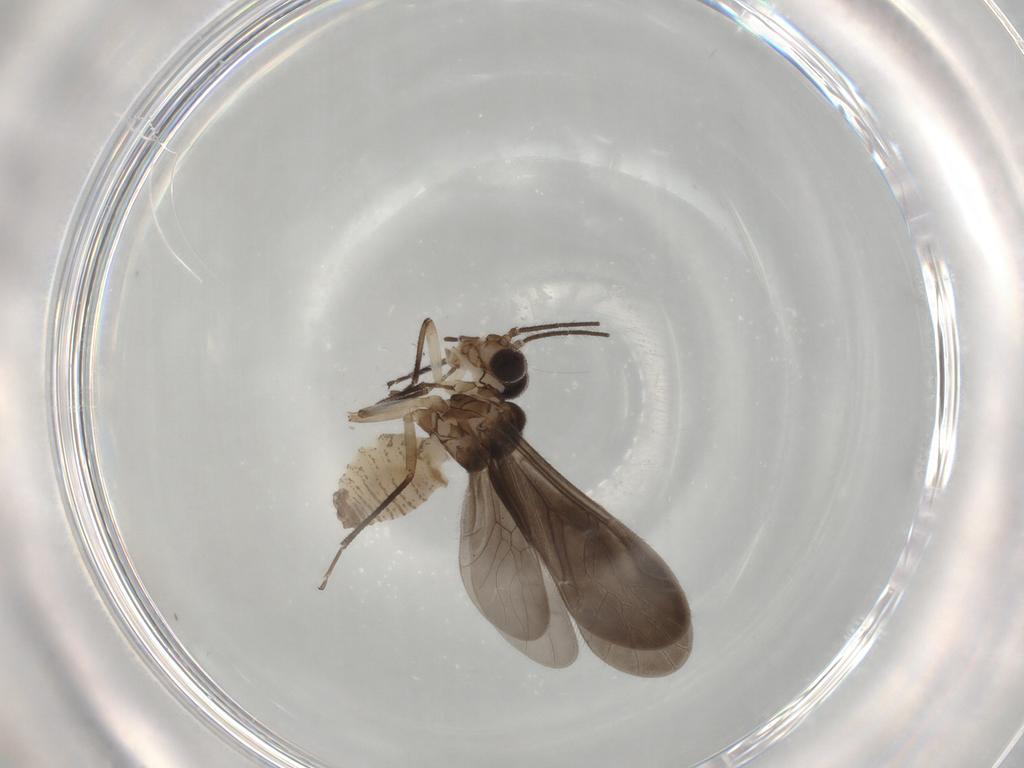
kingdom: Animalia
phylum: Arthropoda
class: Insecta
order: Psocodea
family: Caeciliusidae
